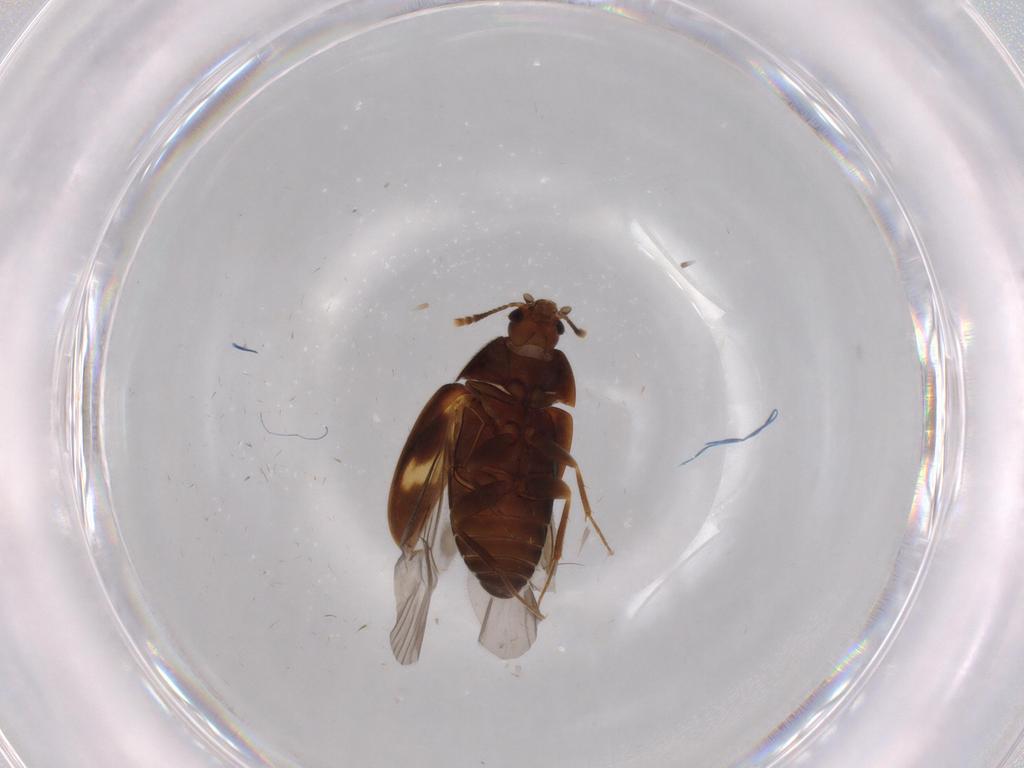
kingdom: Animalia
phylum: Arthropoda
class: Insecta
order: Coleoptera
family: Mycetophagidae
